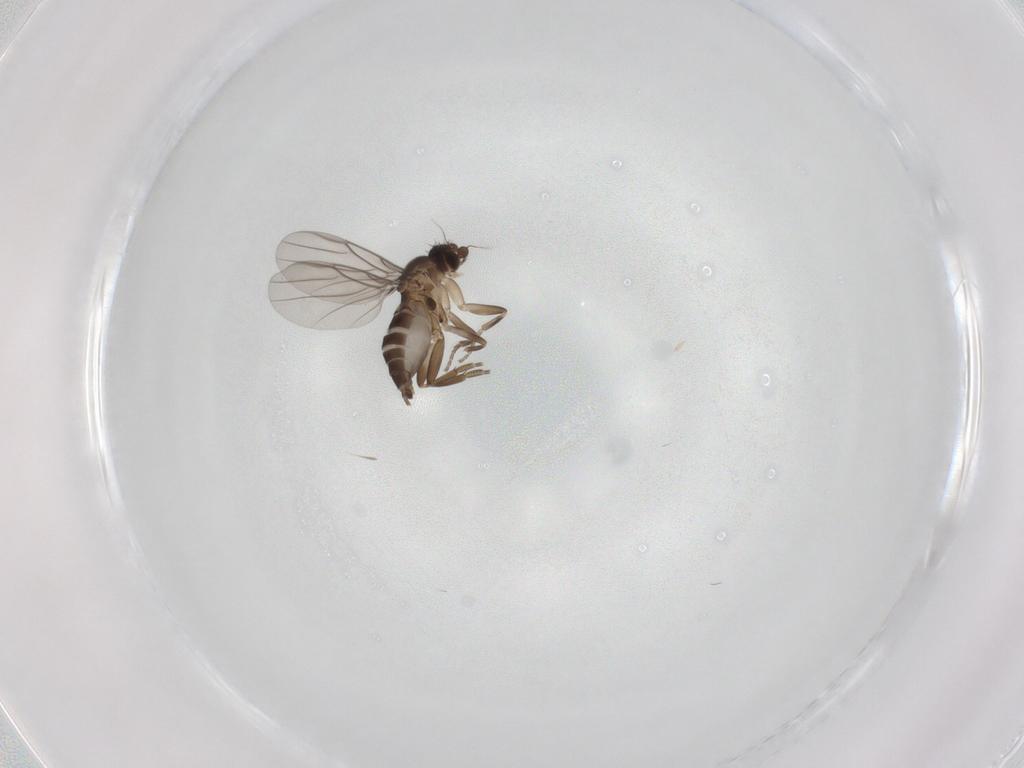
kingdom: Animalia
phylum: Arthropoda
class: Insecta
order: Diptera
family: Phoridae
